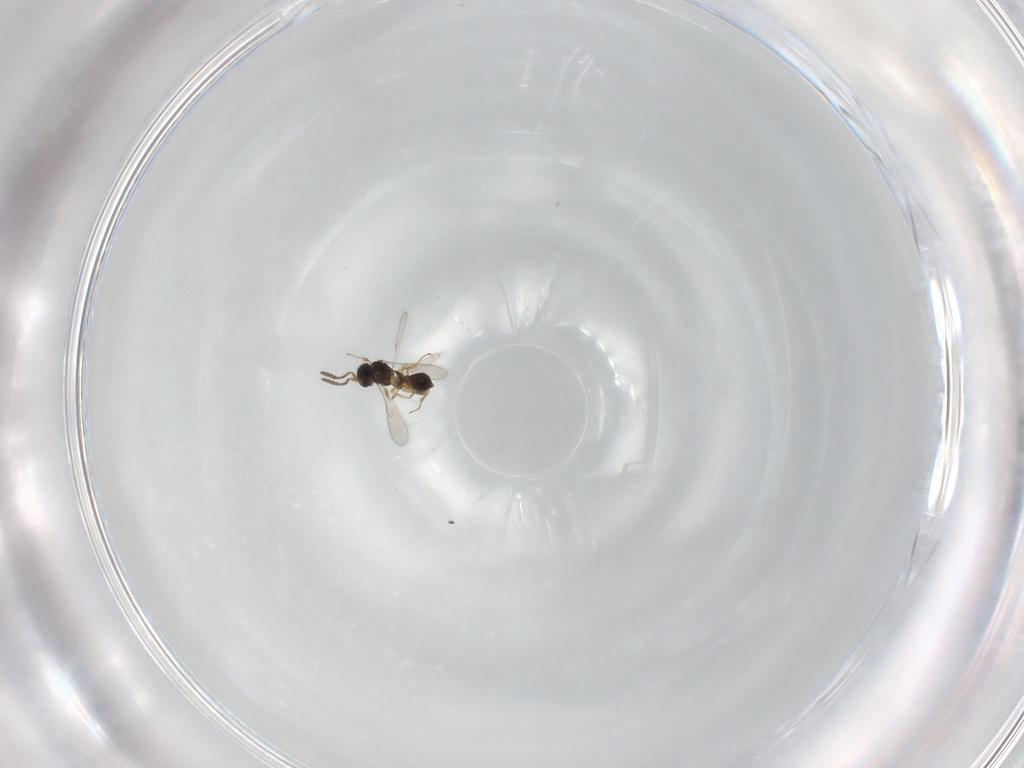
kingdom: Animalia
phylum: Arthropoda
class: Insecta
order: Hymenoptera
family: Scelionidae
